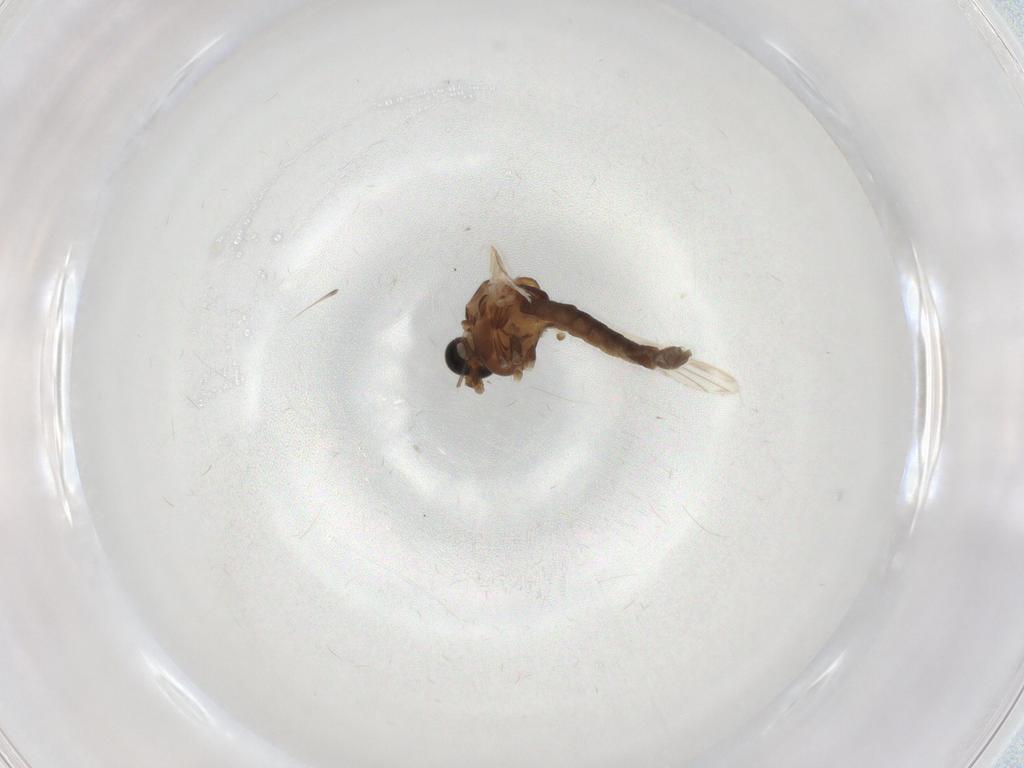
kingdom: Animalia
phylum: Arthropoda
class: Insecta
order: Diptera
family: Chironomidae
